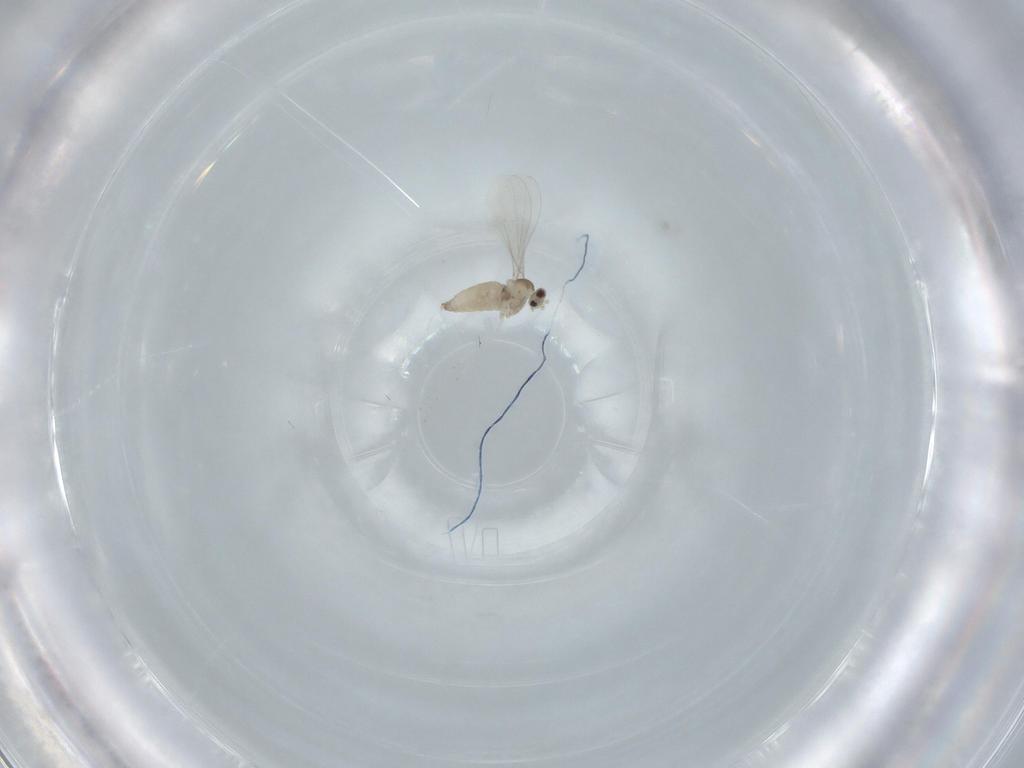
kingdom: Animalia
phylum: Arthropoda
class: Insecta
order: Diptera
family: Cecidomyiidae
